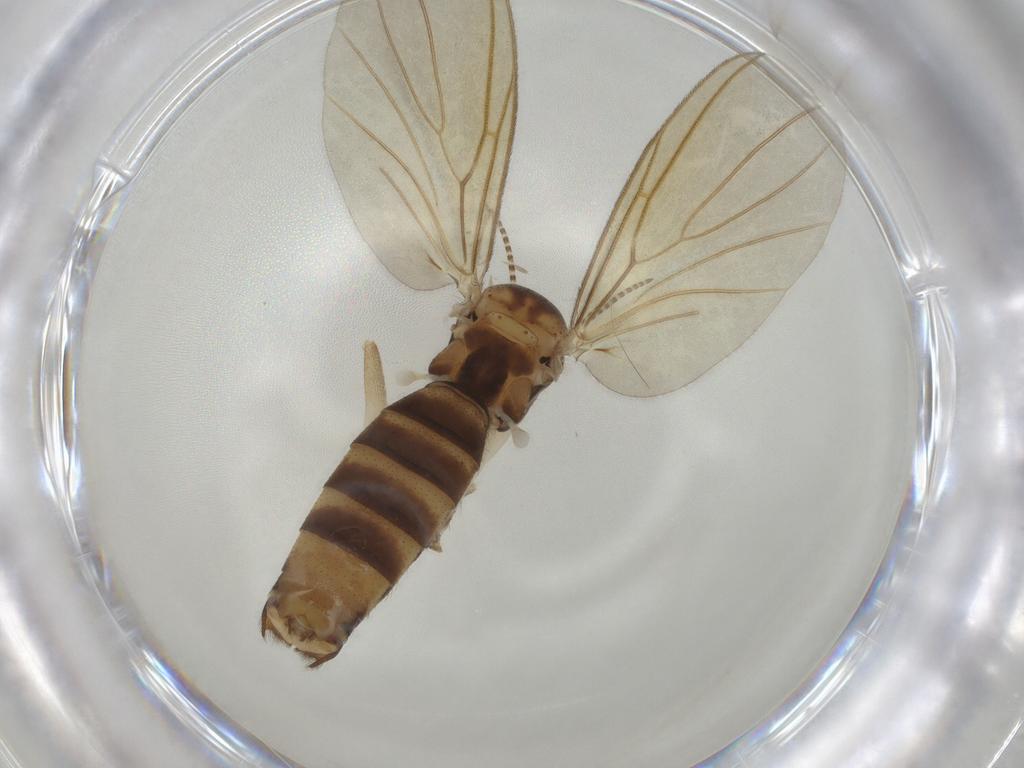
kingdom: Animalia
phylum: Arthropoda
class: Insecta
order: Diptera
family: Mycetophilidae
